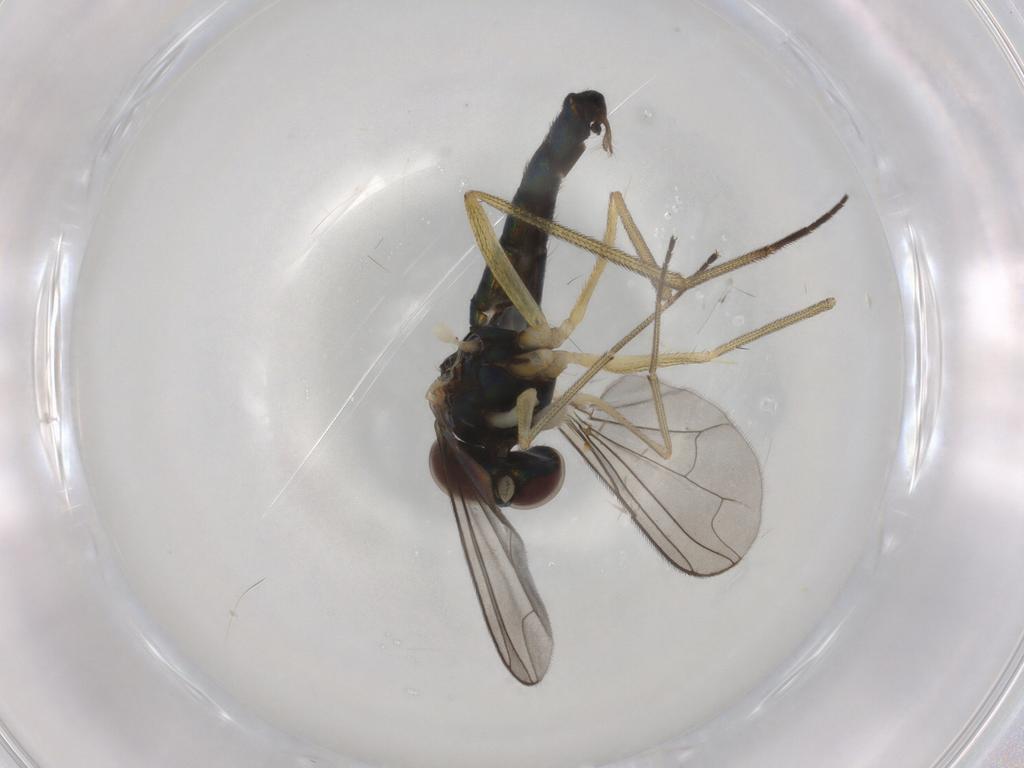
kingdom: Animalia
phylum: Arthropoda
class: Insecta
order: Diptera
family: Dolichopodidae
